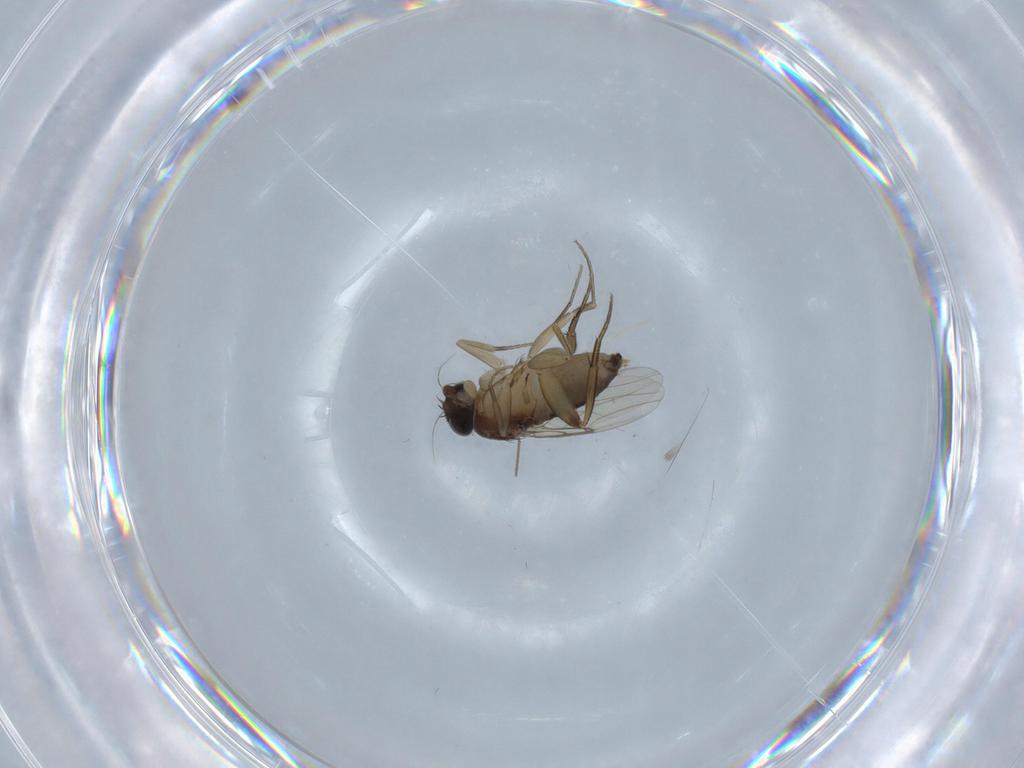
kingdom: Animalia
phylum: Arthropoda
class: Insecta
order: Diptera
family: Phoridae
